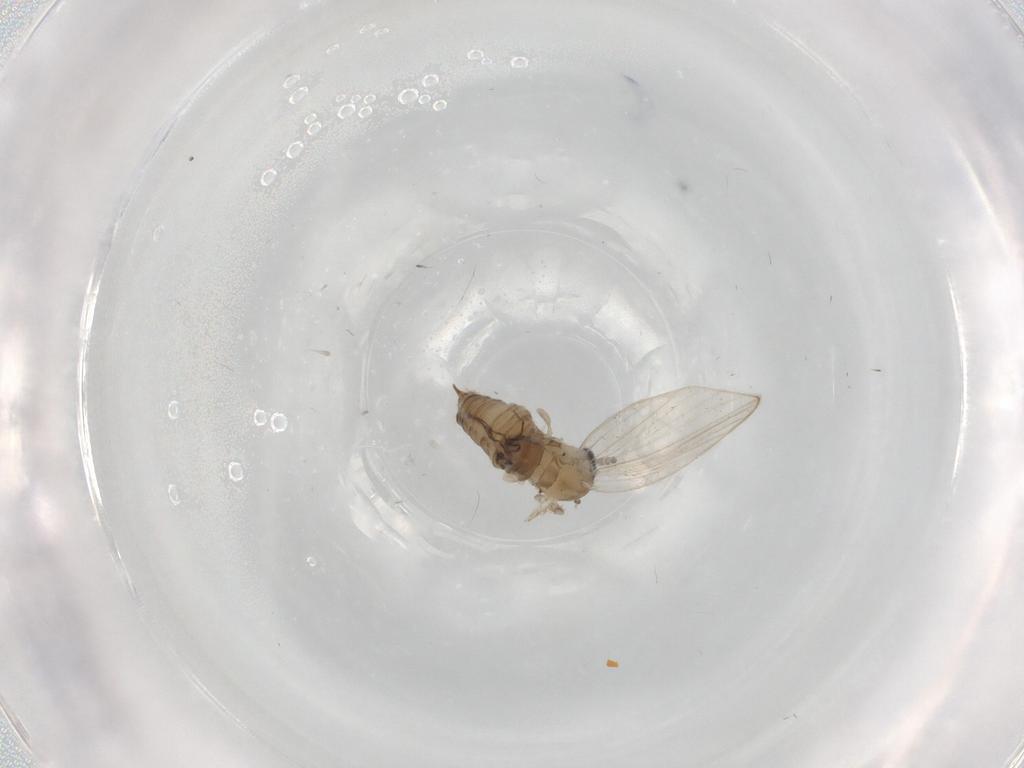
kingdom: Animalia
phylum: Arthropoda
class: Insecta
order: Diptera
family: Psychodidae
